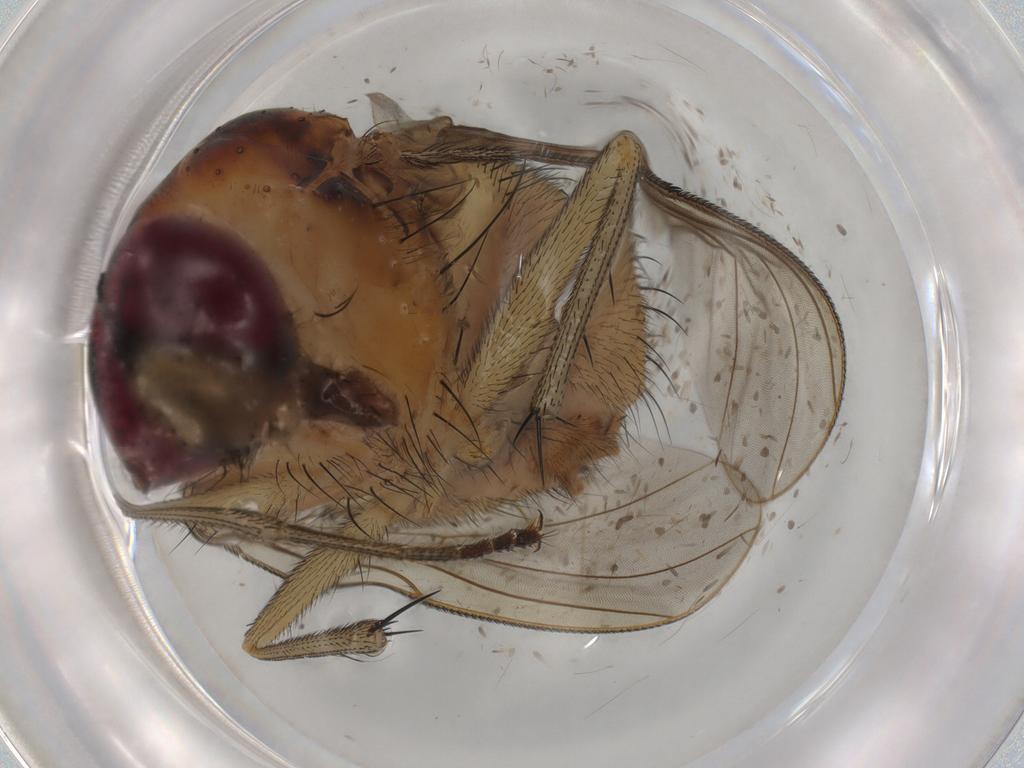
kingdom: Animalia
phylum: Arthropoda
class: Insecta
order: Diptera
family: Muscidae
